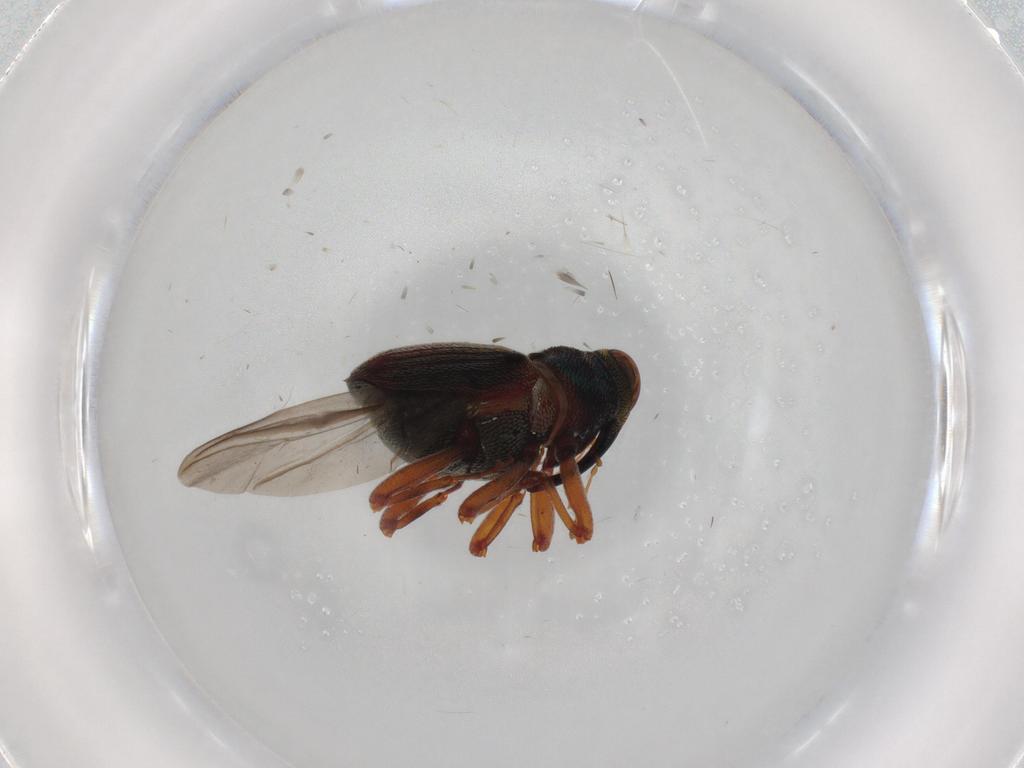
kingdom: Animalia
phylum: Arthropoda
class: Insecta
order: Coleoptera
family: Curculionidae
